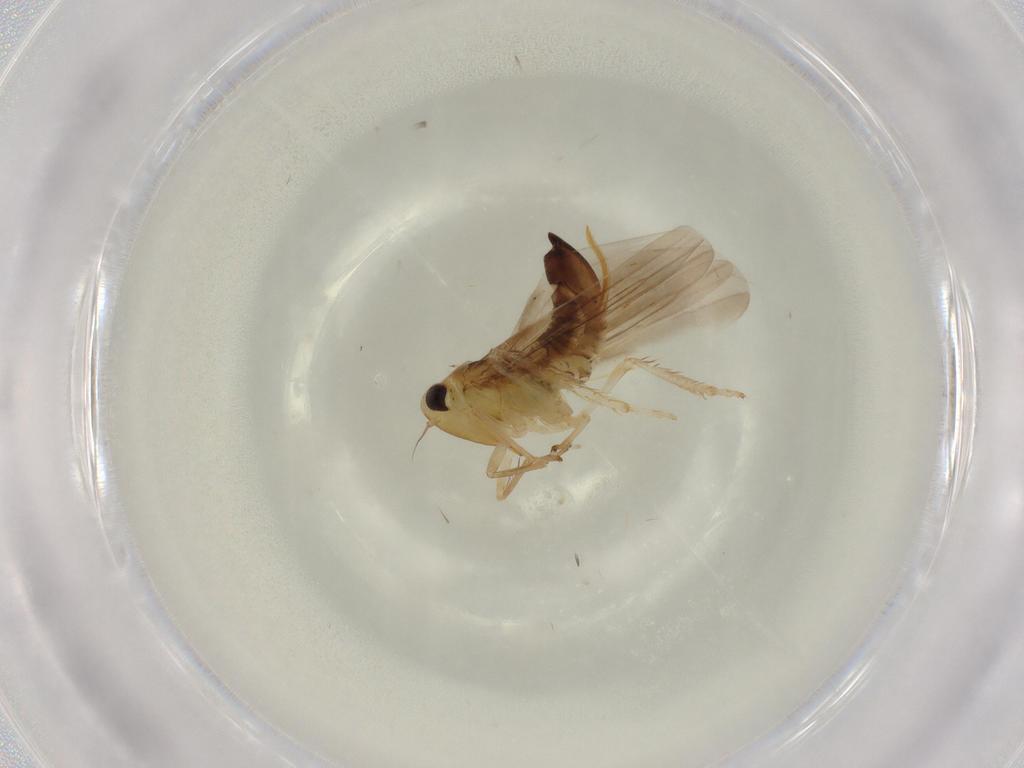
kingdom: Animalia
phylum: Arthropoda
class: Insecta
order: Hemiptera
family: Cicadellidae
